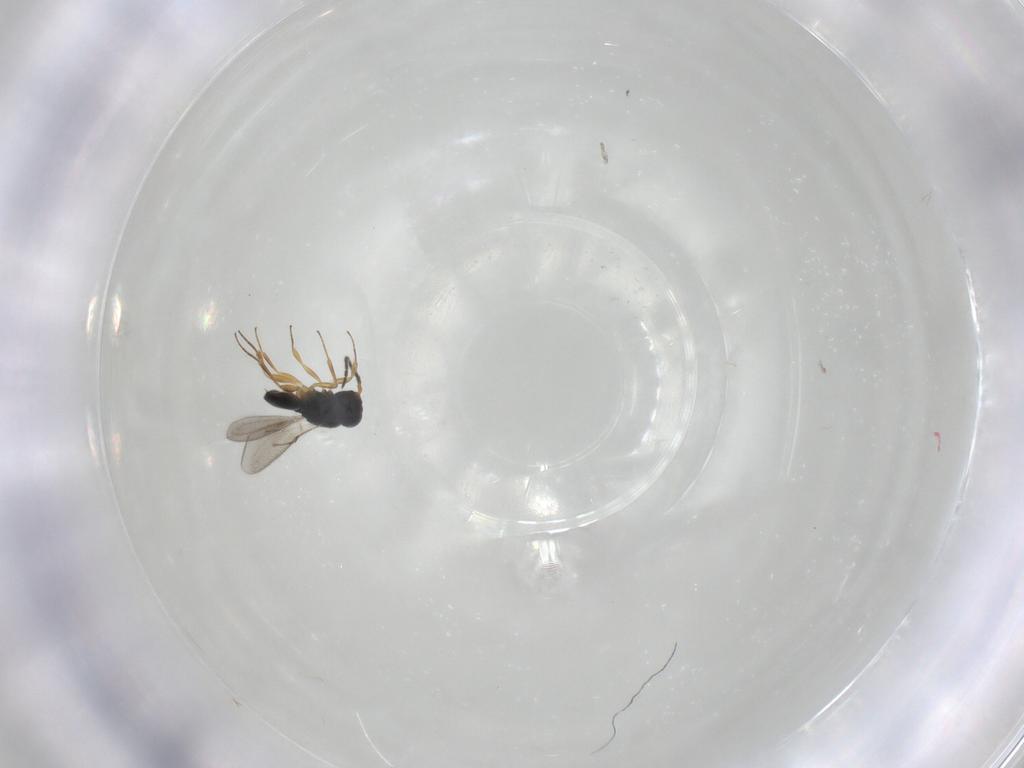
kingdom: Animalia
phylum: Arthropoda
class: Insecta
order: Hymenoptera
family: Scelionidae
